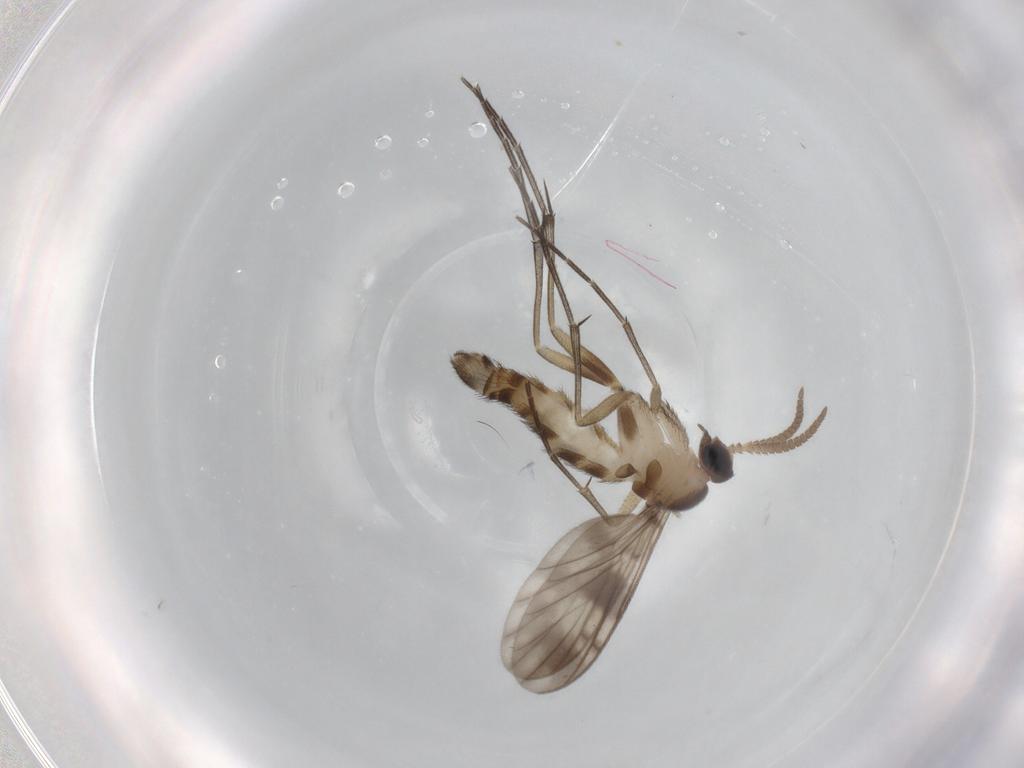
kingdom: Animalia
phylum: Arthropoda
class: Insecta
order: Diptera
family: Keroplatidae
